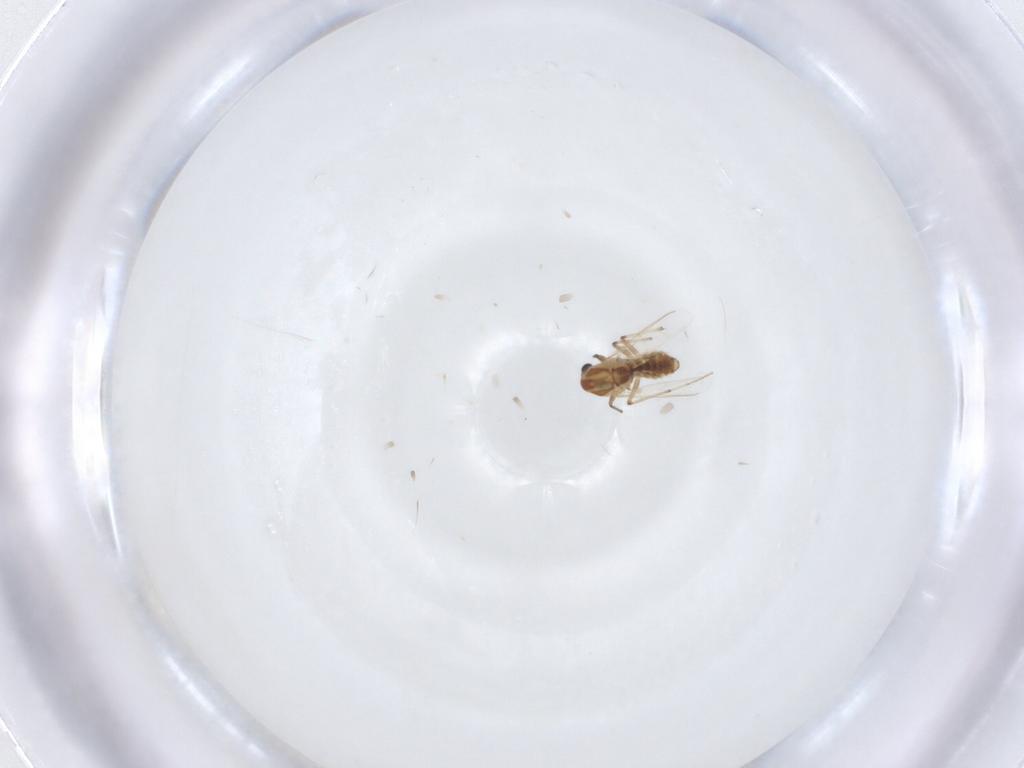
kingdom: Animalia
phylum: Arthropoda
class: Insecta
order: Diptera
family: Chironomidae
